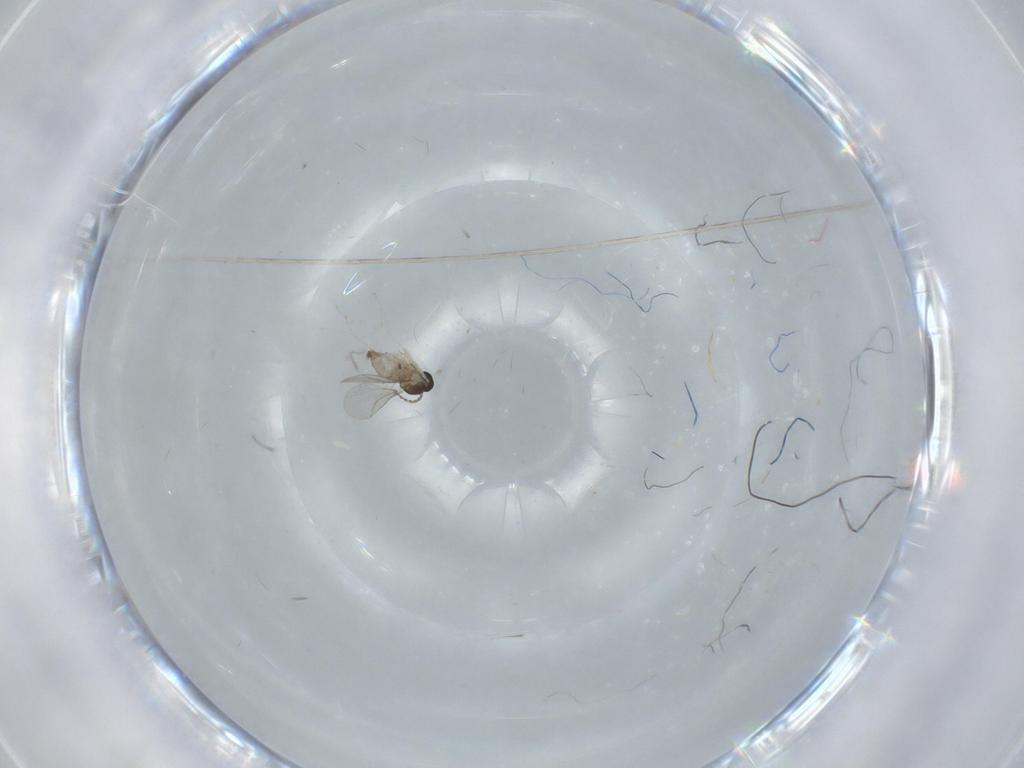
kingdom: Animalia
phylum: Arthropoda
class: Insecta
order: Diptera
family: Cecidomyiidae
